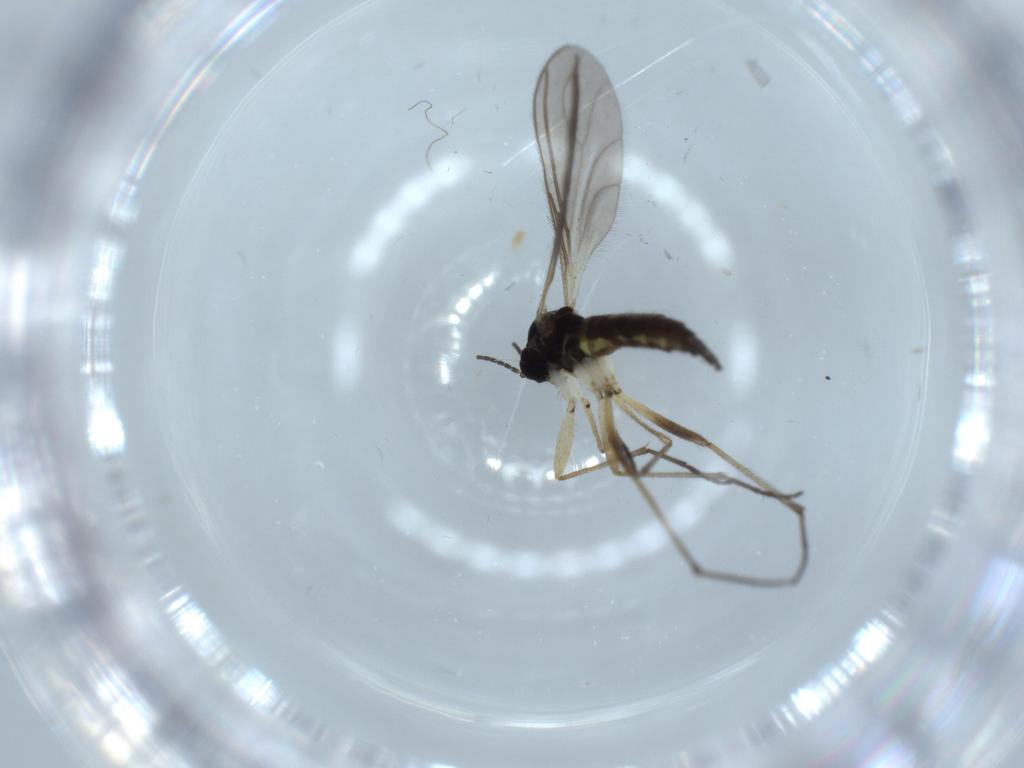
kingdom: Animalia
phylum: Arthropoda
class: Insecta
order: Diptera
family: Sciaridae
